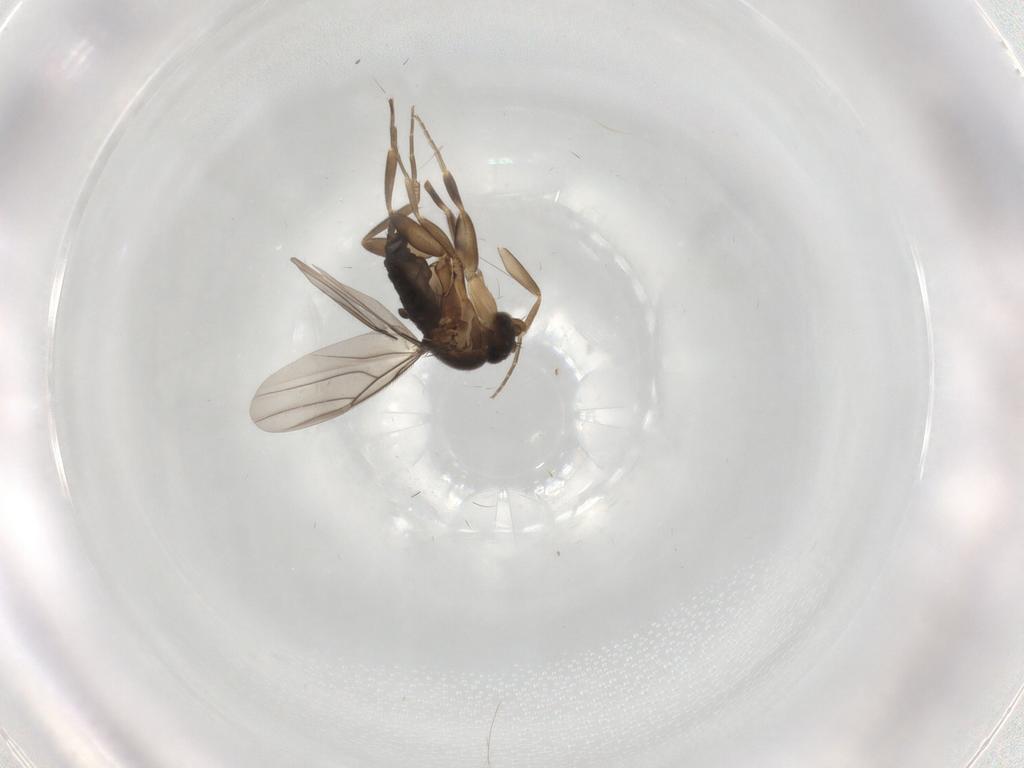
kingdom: Animalia
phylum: Arthropoda
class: Insecta
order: Diptera
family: Phoridae
